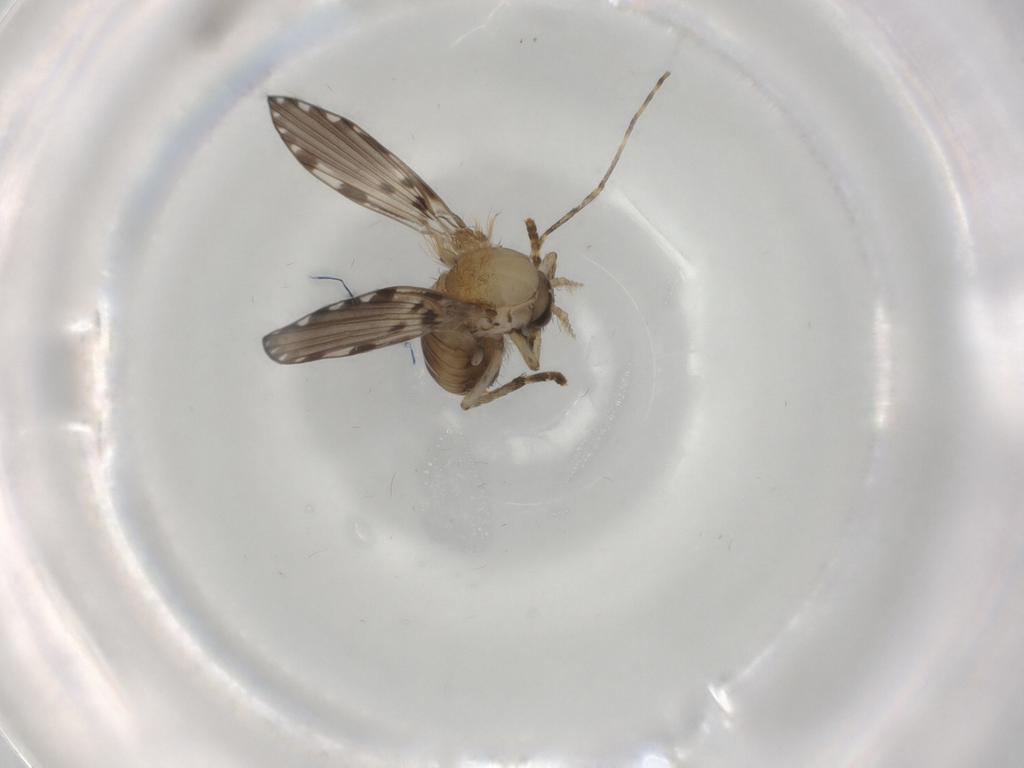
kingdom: Animalia
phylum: Arthropoda
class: Insecta
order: Diptera
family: Psychodidae
